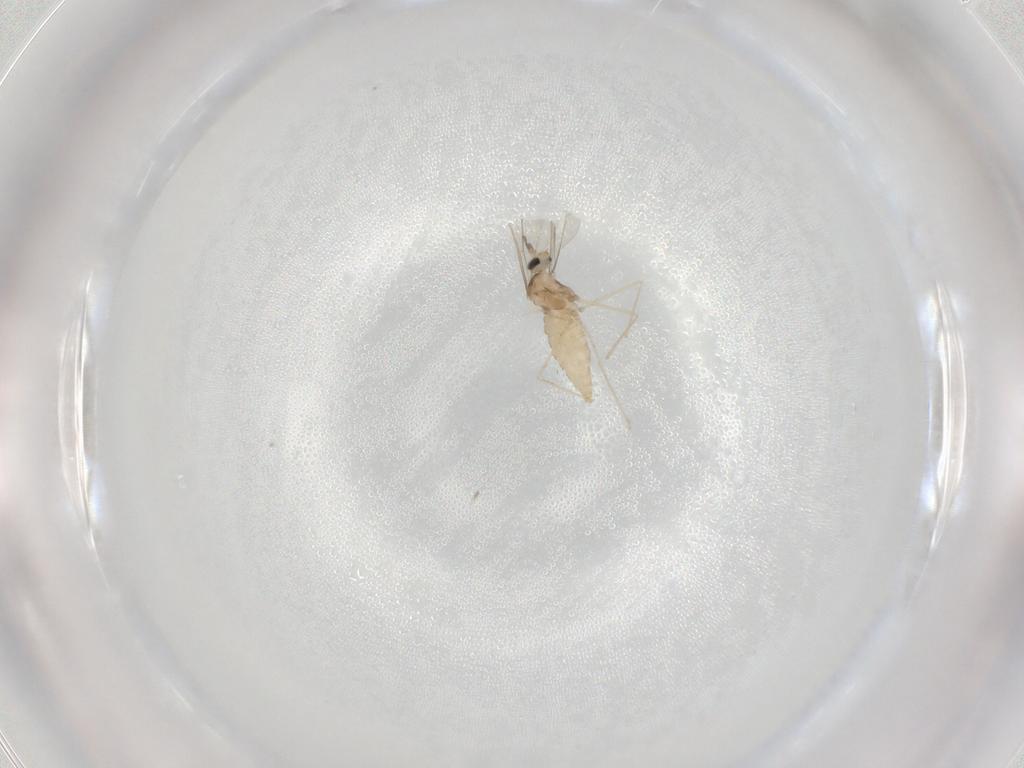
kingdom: Animalia
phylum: Arthropoda
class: Insecta
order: Diptera
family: Cecidomyiidae
